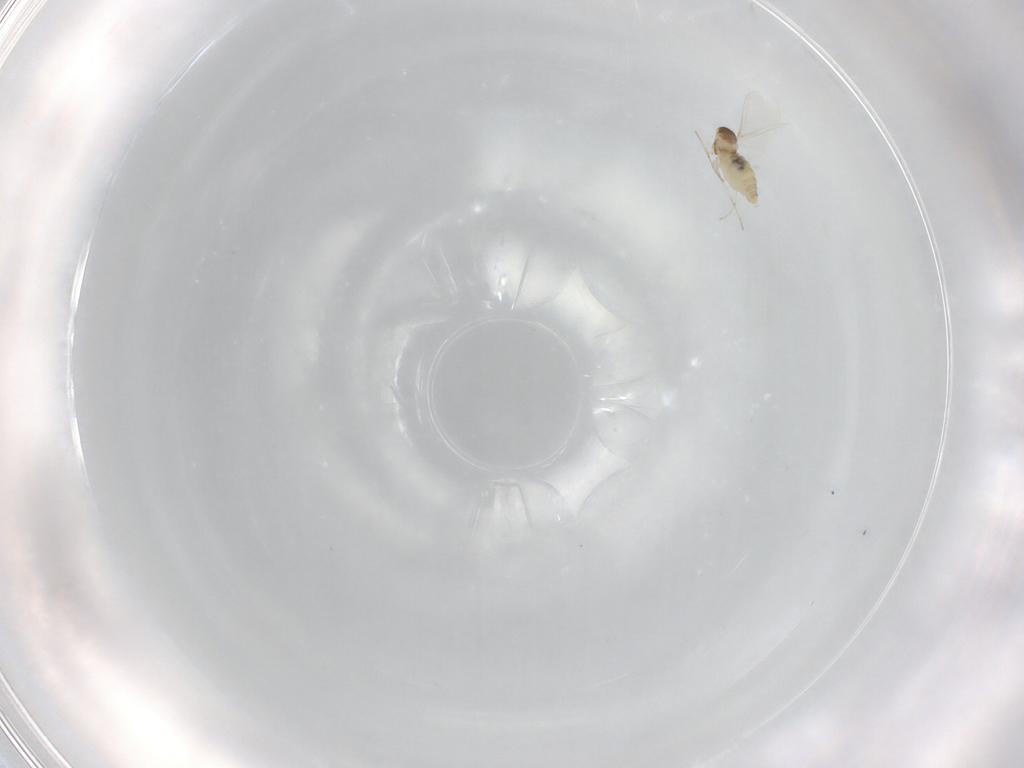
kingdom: Animalia
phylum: Arthropoda
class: Insecta
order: Diptera
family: Cecidomyiidae
